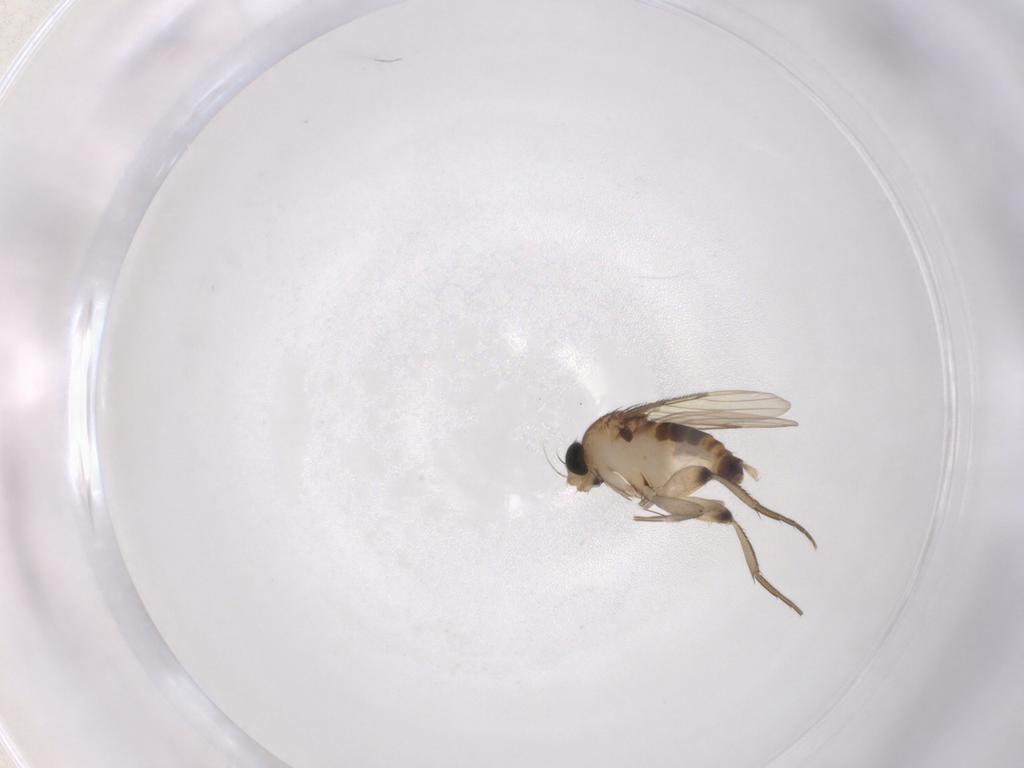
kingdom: Animalia
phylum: Arthropoda
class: Insecta
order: Diptera
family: Phoridae
